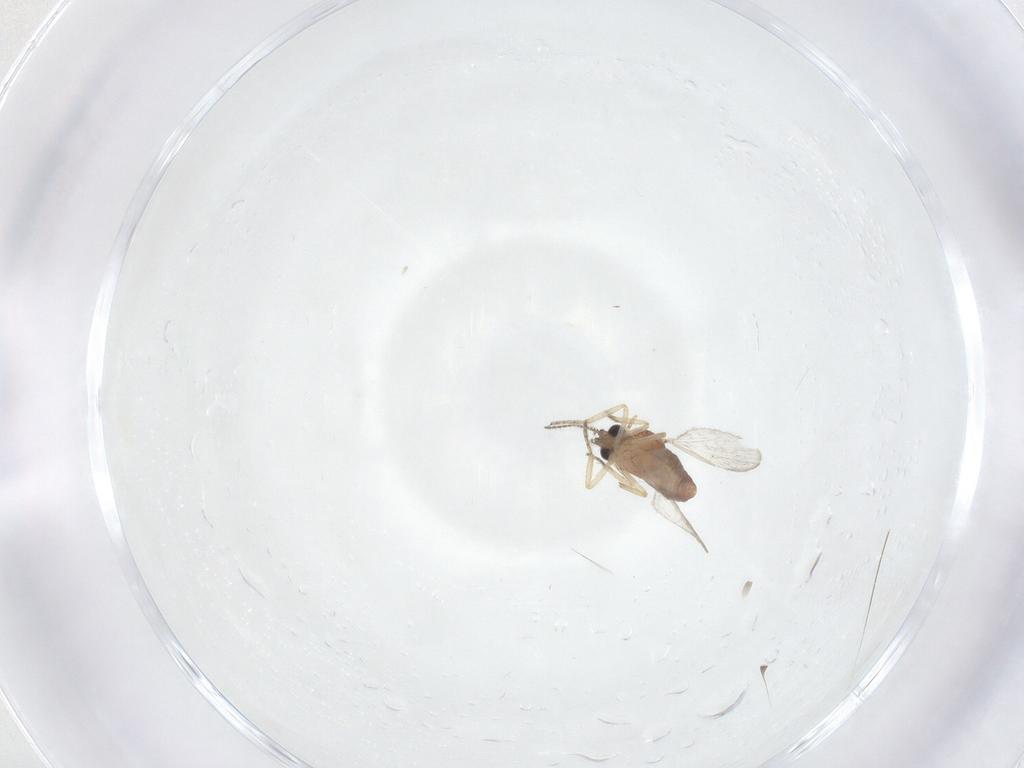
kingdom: Animalia
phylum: Arthropoda
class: Insecta
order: Diptera
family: Ceratopogonidae
